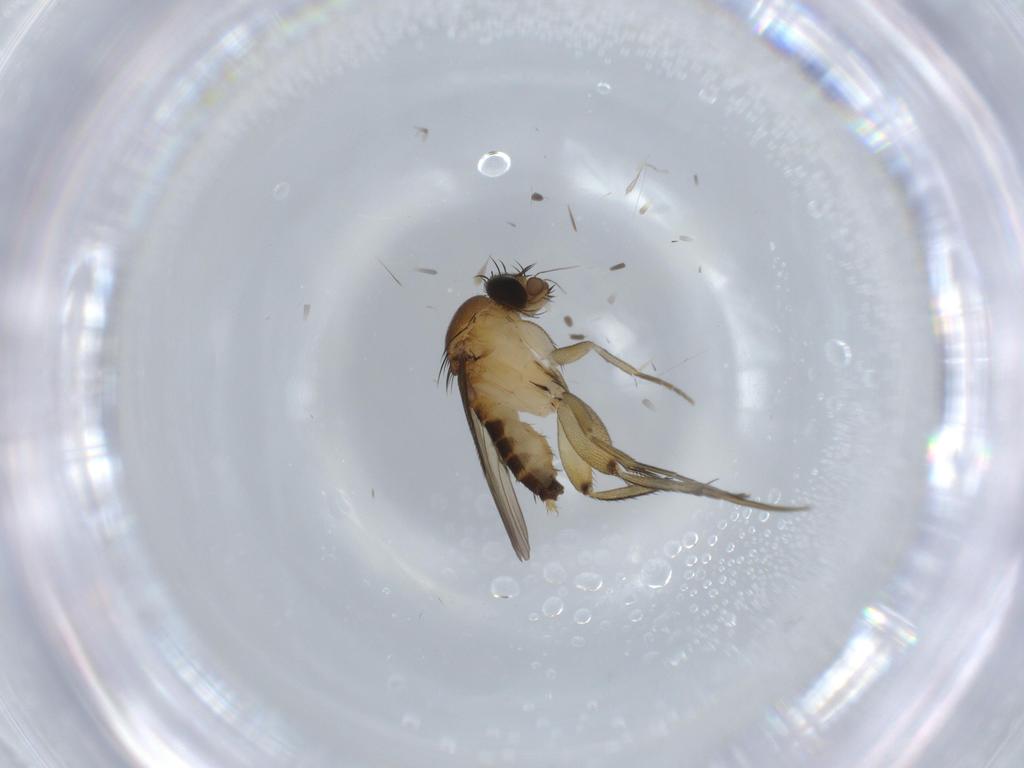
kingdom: Animalia
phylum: Arthropoda
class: Insecta
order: Diptera
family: Phoridae
